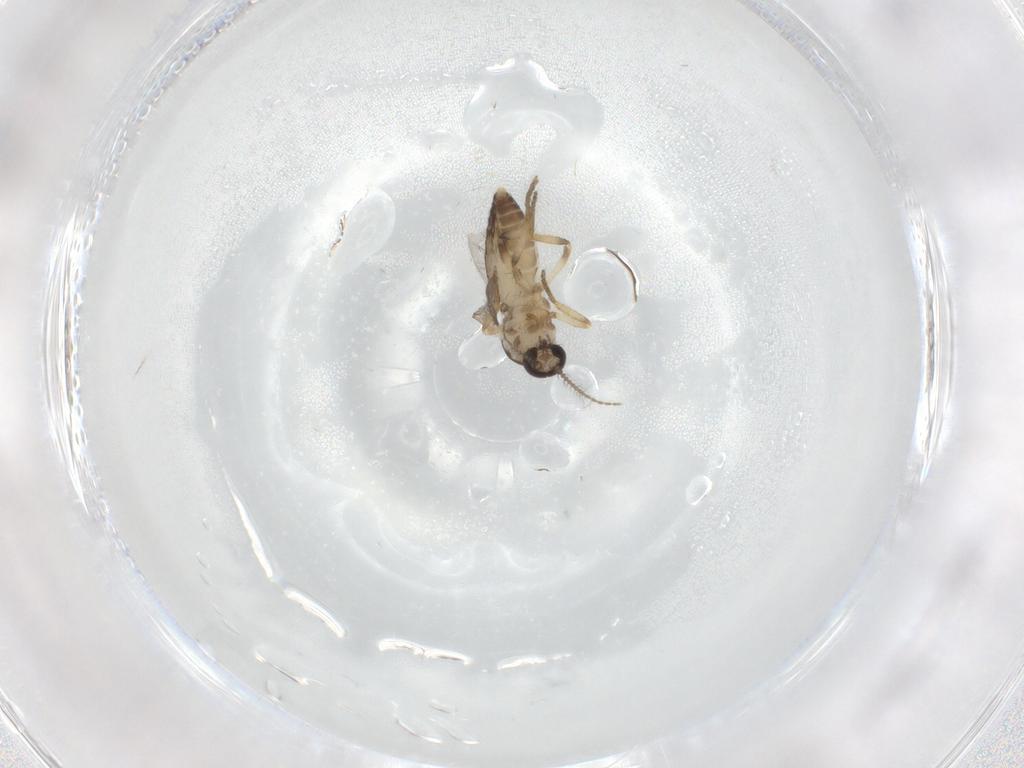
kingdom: Animalia
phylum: Arthropoda
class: Insecta
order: Diptera
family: Ceratopogonidae
